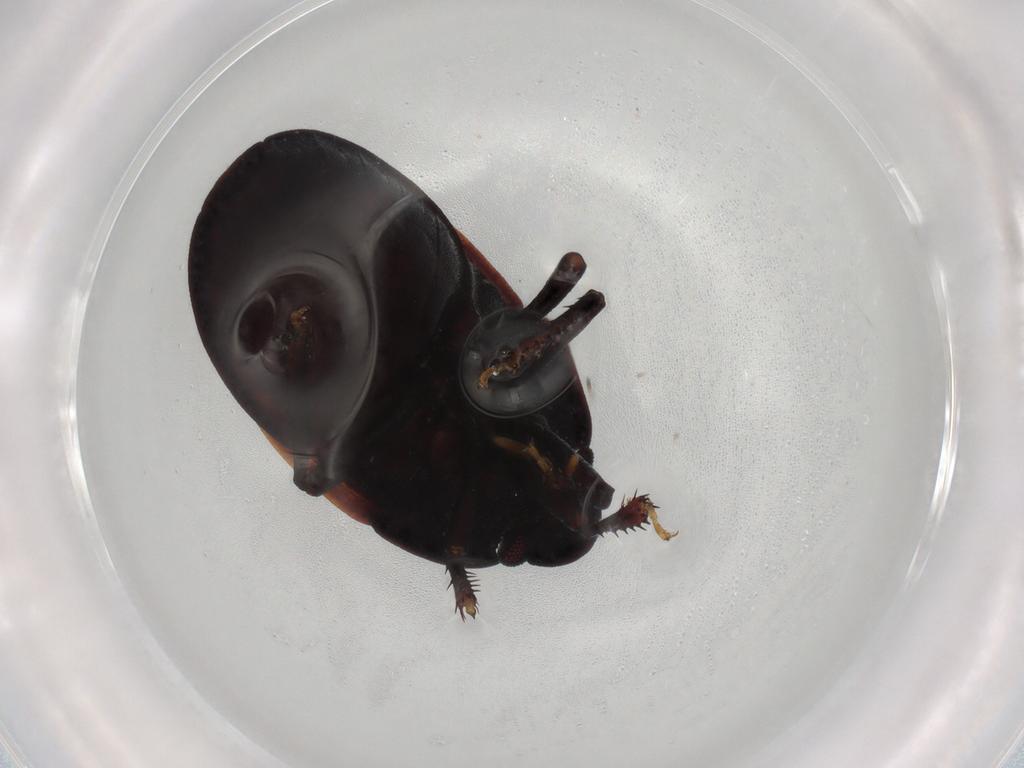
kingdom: Animalia
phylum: Arthropoda
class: Insecta
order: Hemiptera
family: Cydnidae
